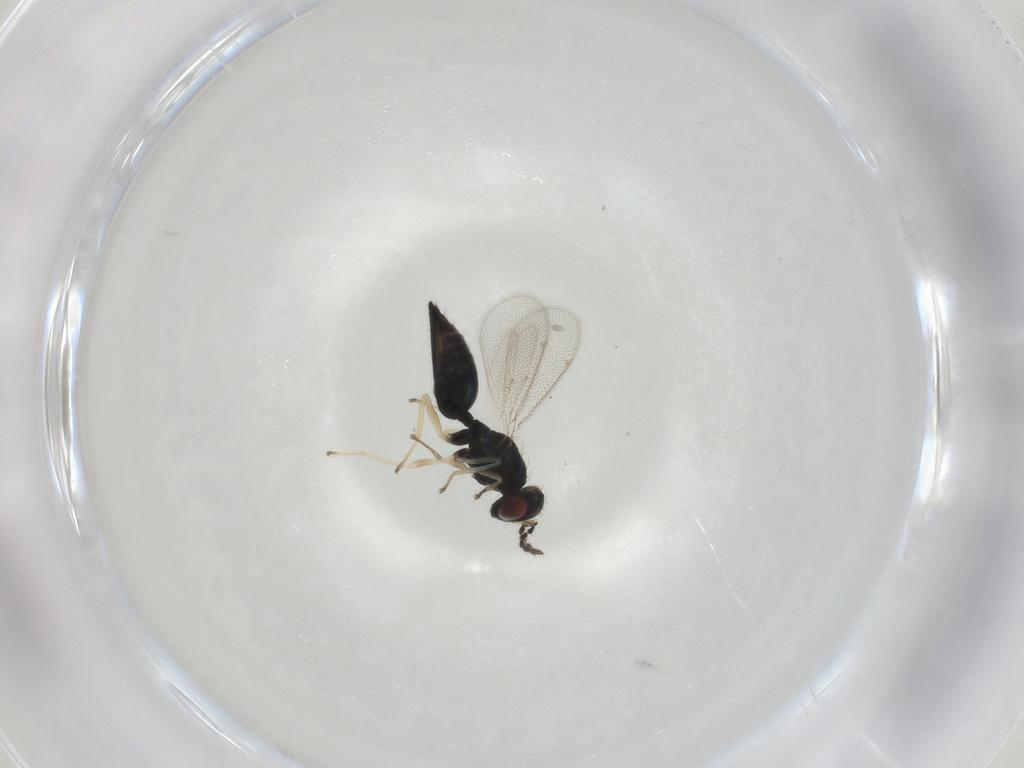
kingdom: Animalia
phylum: Arthropoda
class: Insecta
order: Hymenoptera
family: Eulophidae
